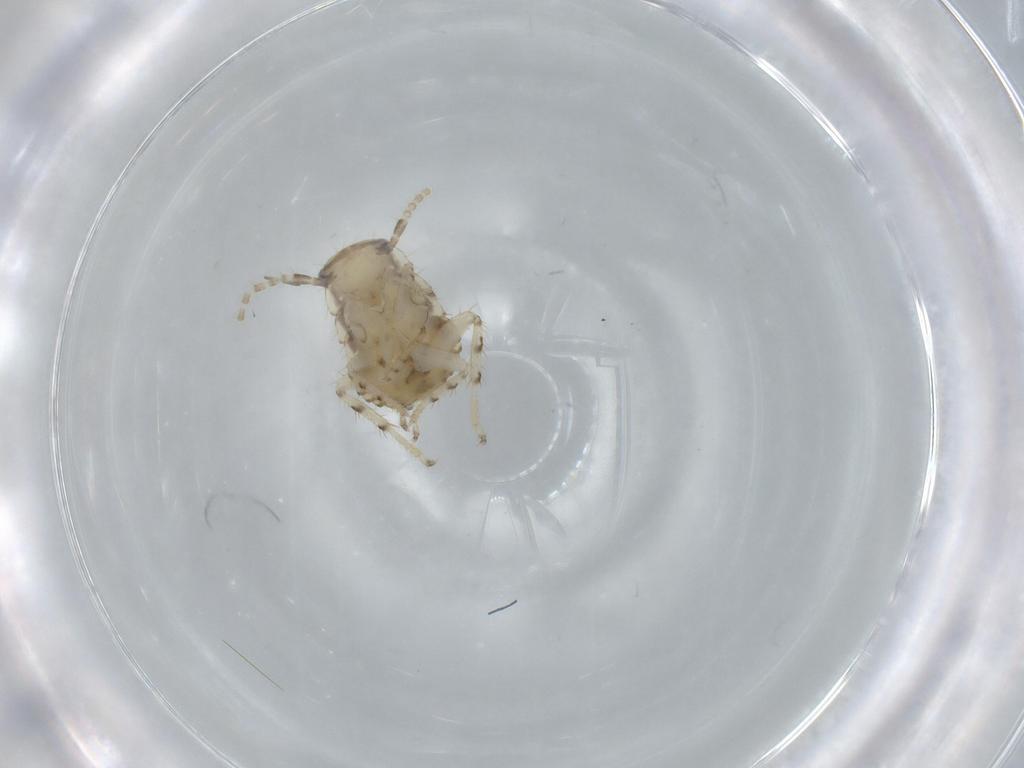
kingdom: Animalia
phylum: Arthropoda
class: Insecta
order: Blattodea
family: Ectobiidae
